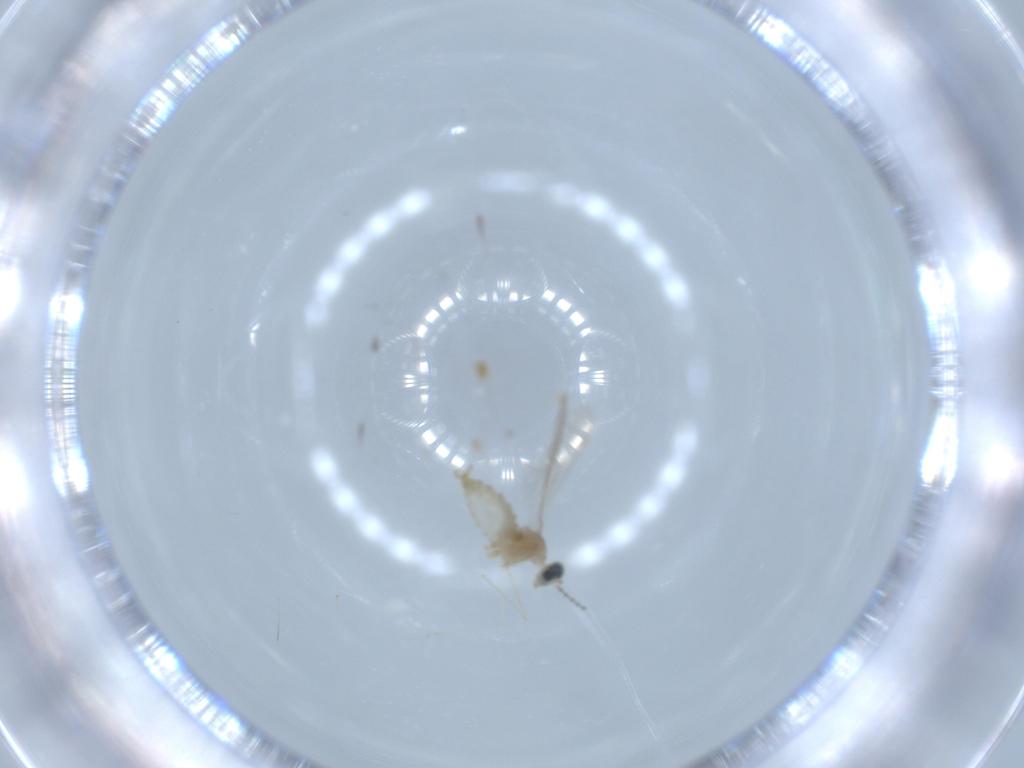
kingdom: Animalia
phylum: Arthropoda
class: Insecta
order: Diptera
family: Cecidomyiidae
